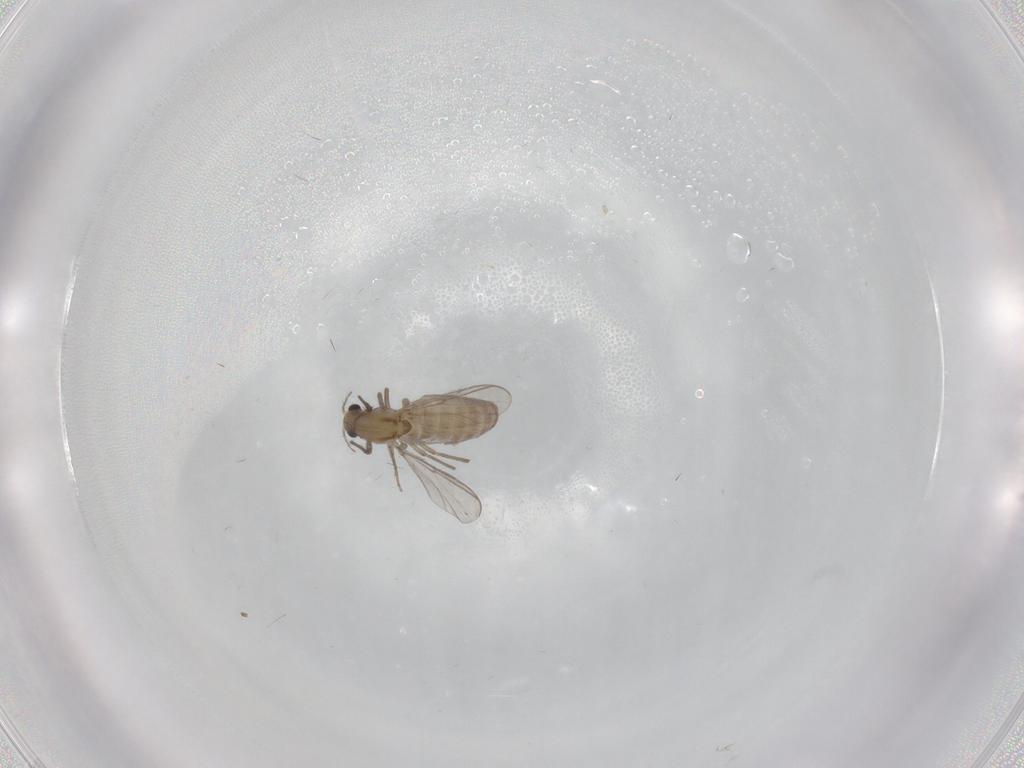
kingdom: Animalia
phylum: Arthropoda
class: Insecta
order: Diptera
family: Chironomidae
